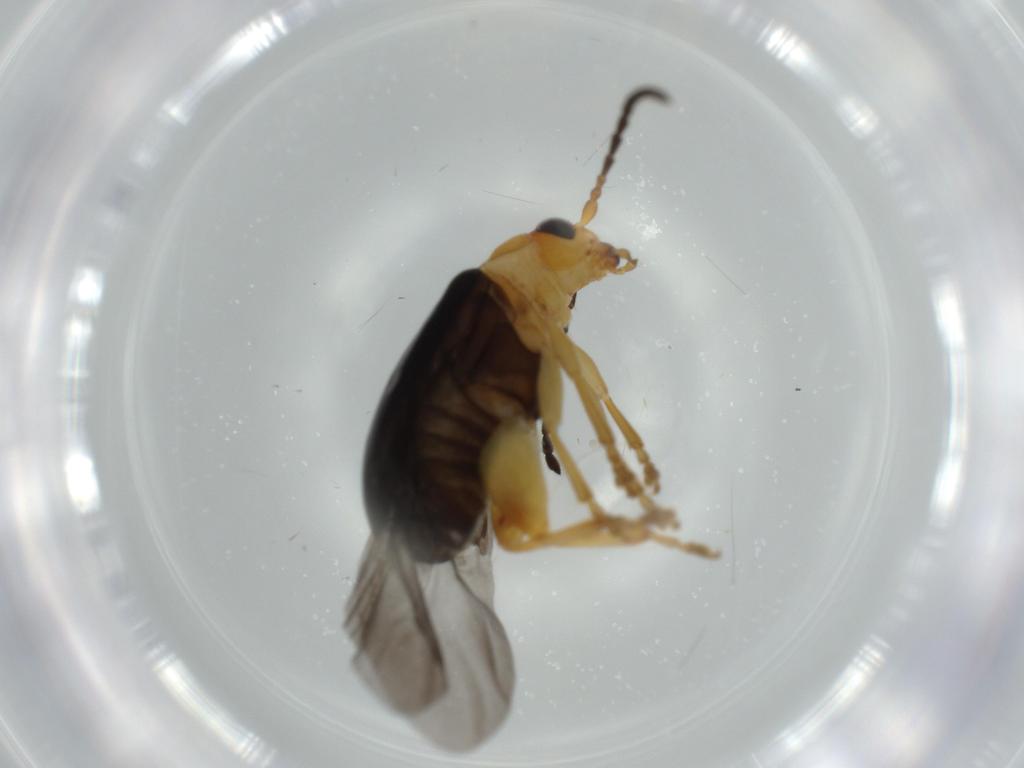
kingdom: Animalia
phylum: Arthropoda
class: Insecta
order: Coleoptera
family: Chrysomelidae
